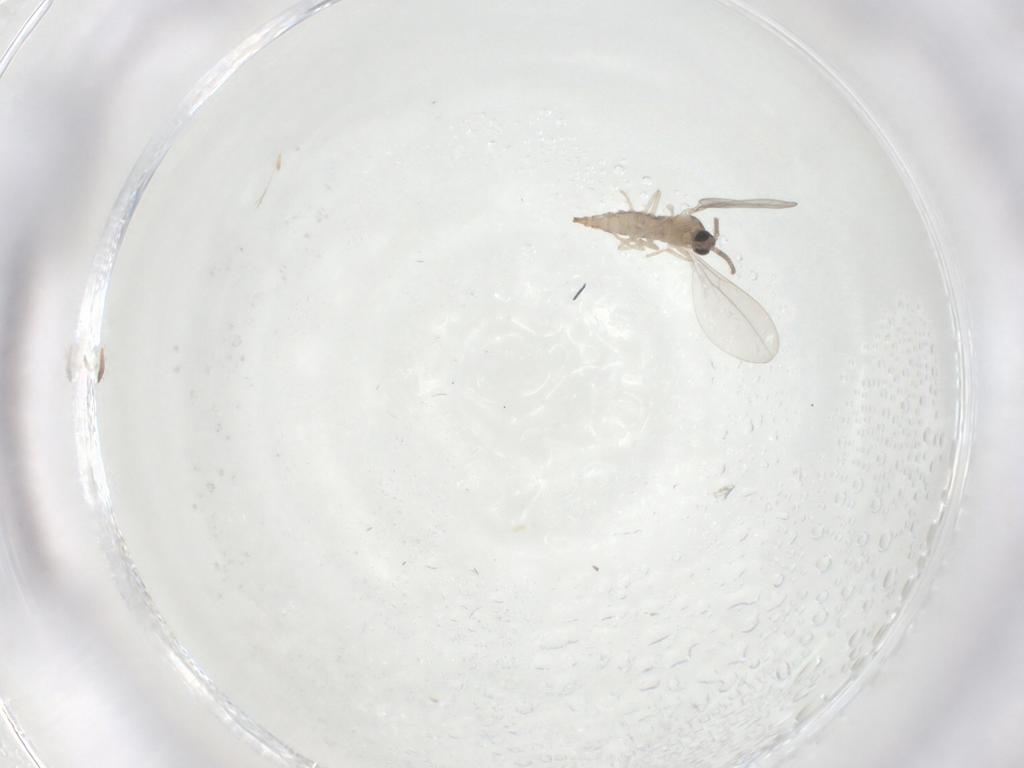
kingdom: Animalia
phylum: Arthropoda
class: Insecta
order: Diptera
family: Cecidomyiidae
